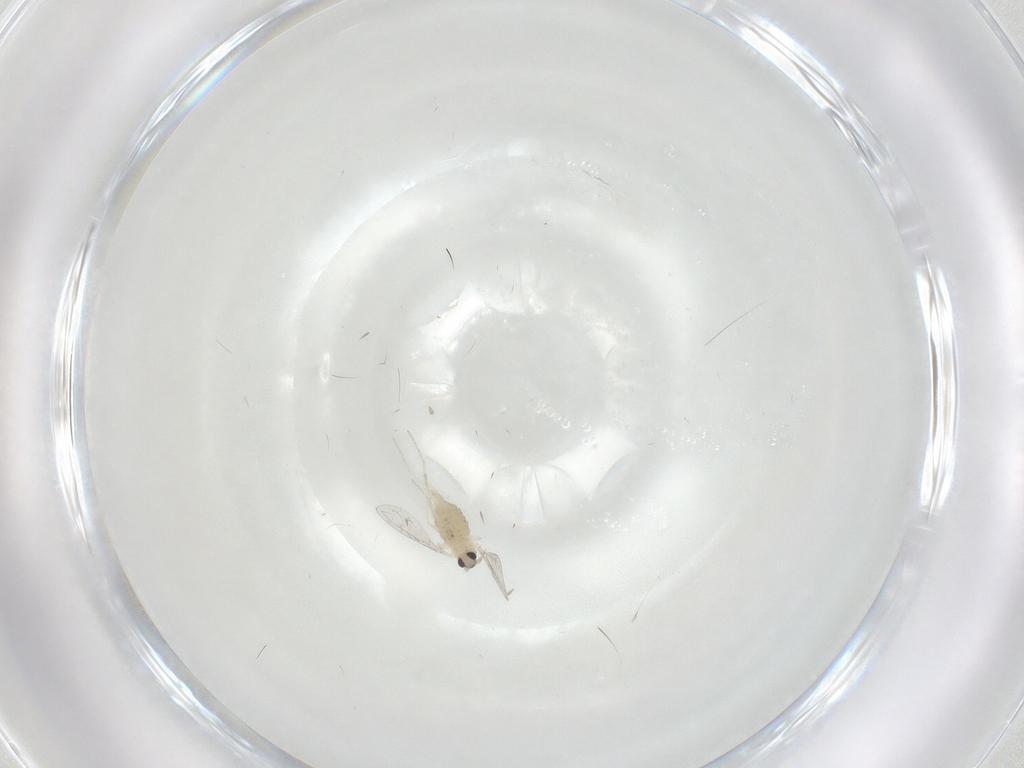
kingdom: Animalia
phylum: Arthropoda
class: Insecta
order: Diptera
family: Cecidomyiidae
